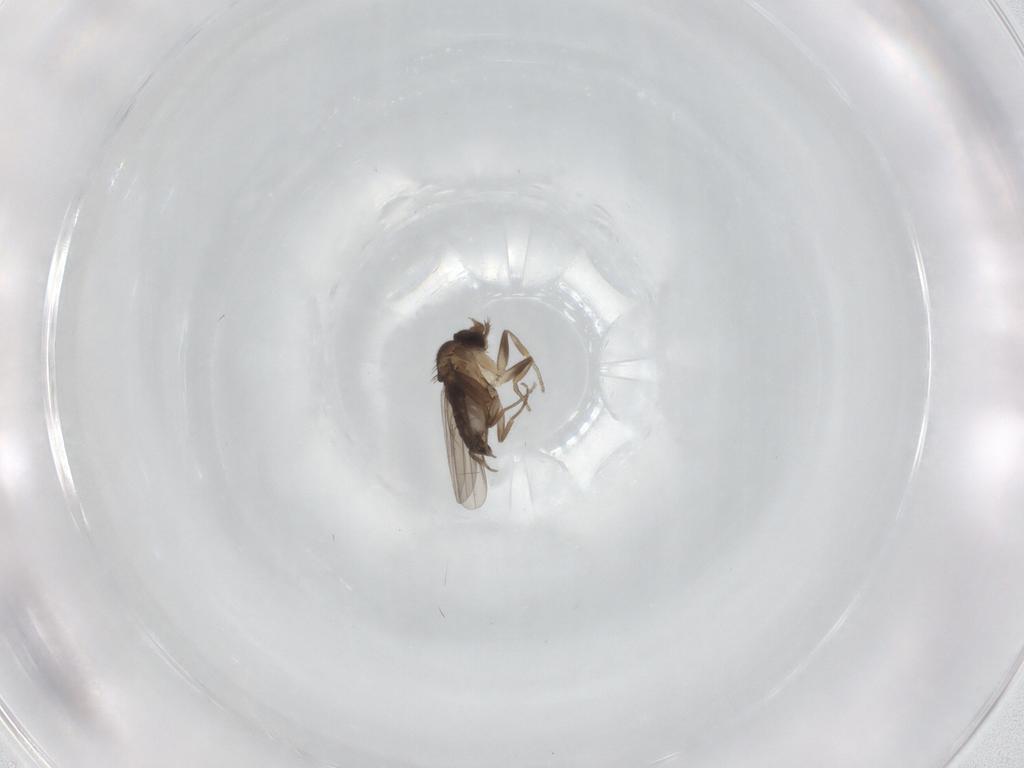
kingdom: Animalia
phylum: Arthropoda
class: Insecta
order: Diptera
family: Phoridae
